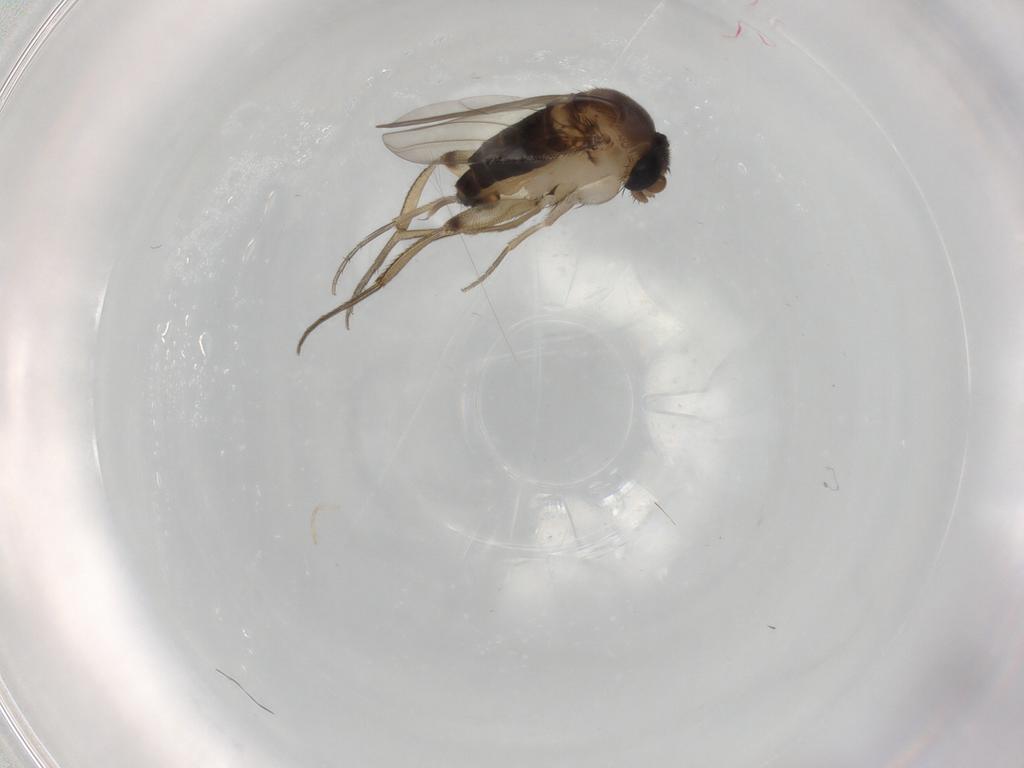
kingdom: Animalia
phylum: Arthropoda
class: Insecta
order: Diptera
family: Phoridae
